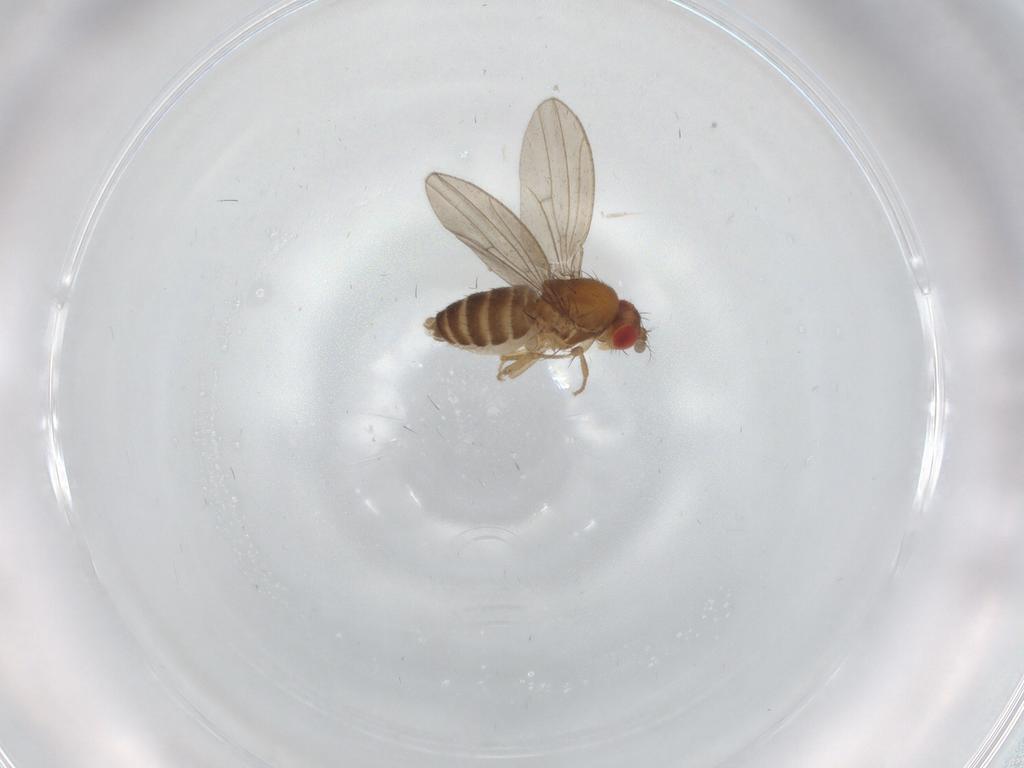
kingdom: Animalia
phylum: Arthropoda
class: Insecta
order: Diptera
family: Drosophilidae
